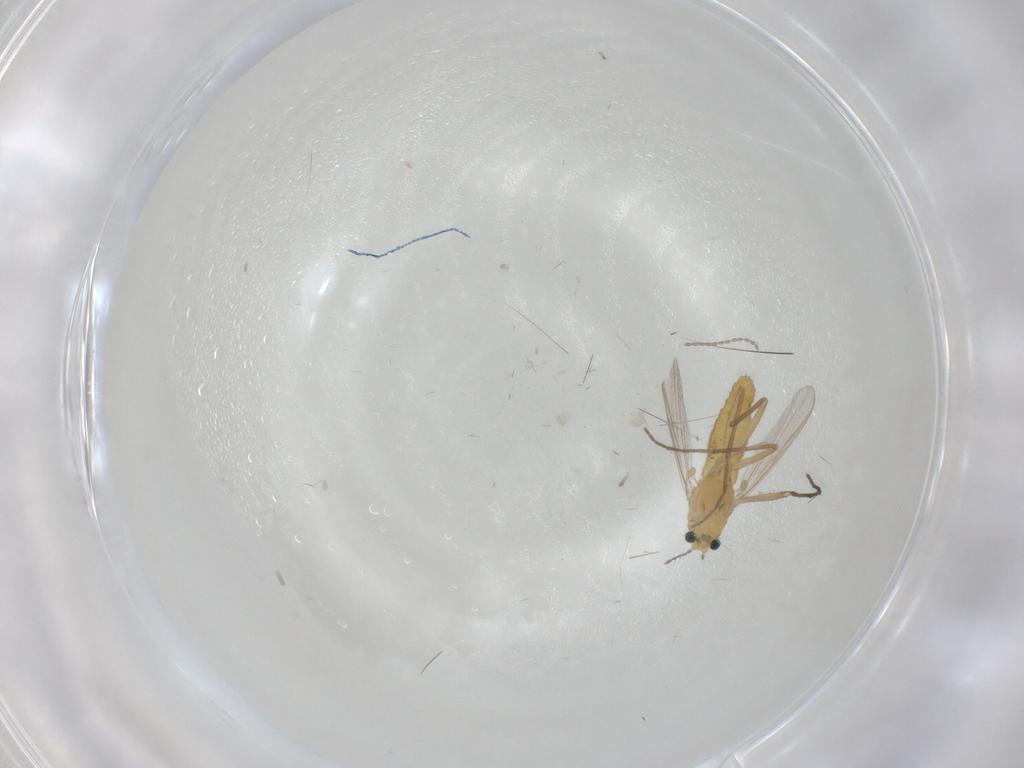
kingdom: Animalia
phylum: Arthropoda
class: Insecta
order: Diptera
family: Chironomidae
